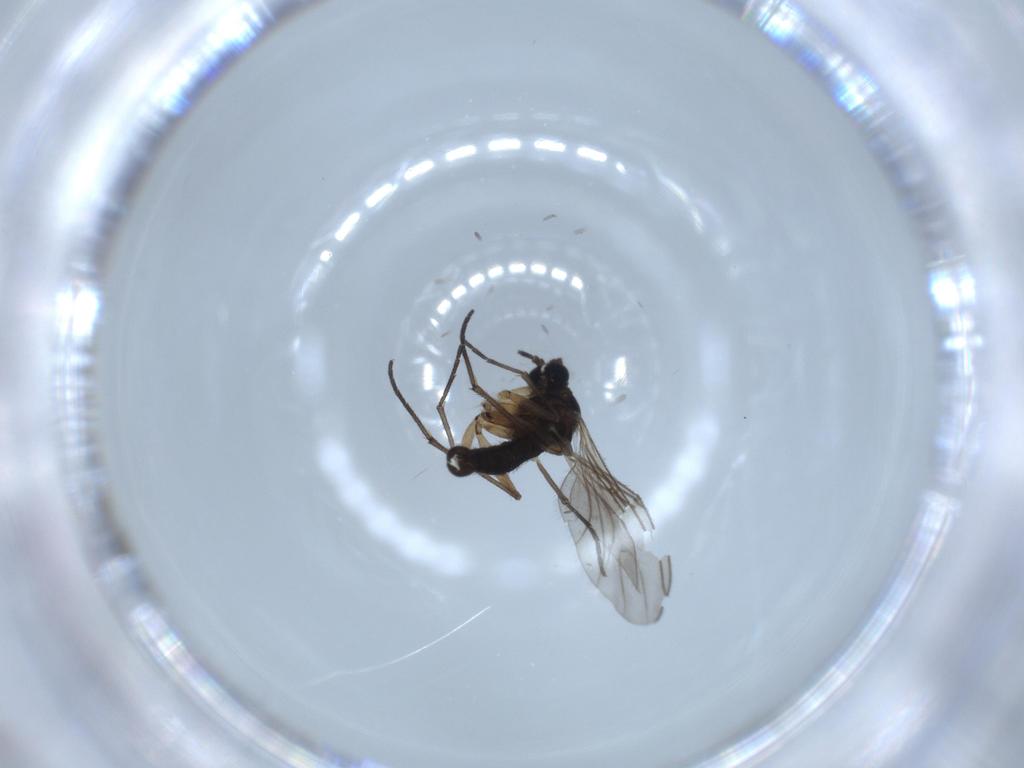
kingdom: Animalia
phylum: Arthropoda
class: Insecta
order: Diptera
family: Sciaridae
